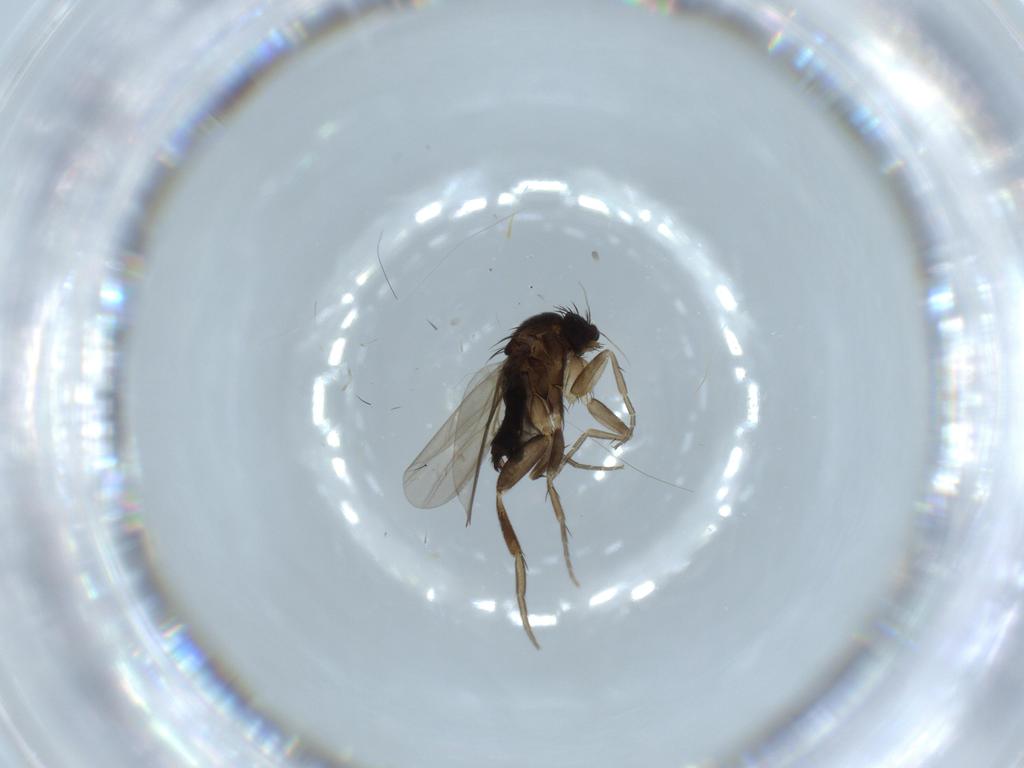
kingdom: Animalia
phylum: Arthropoda
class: Insecta
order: Diptera
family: Phoridae
